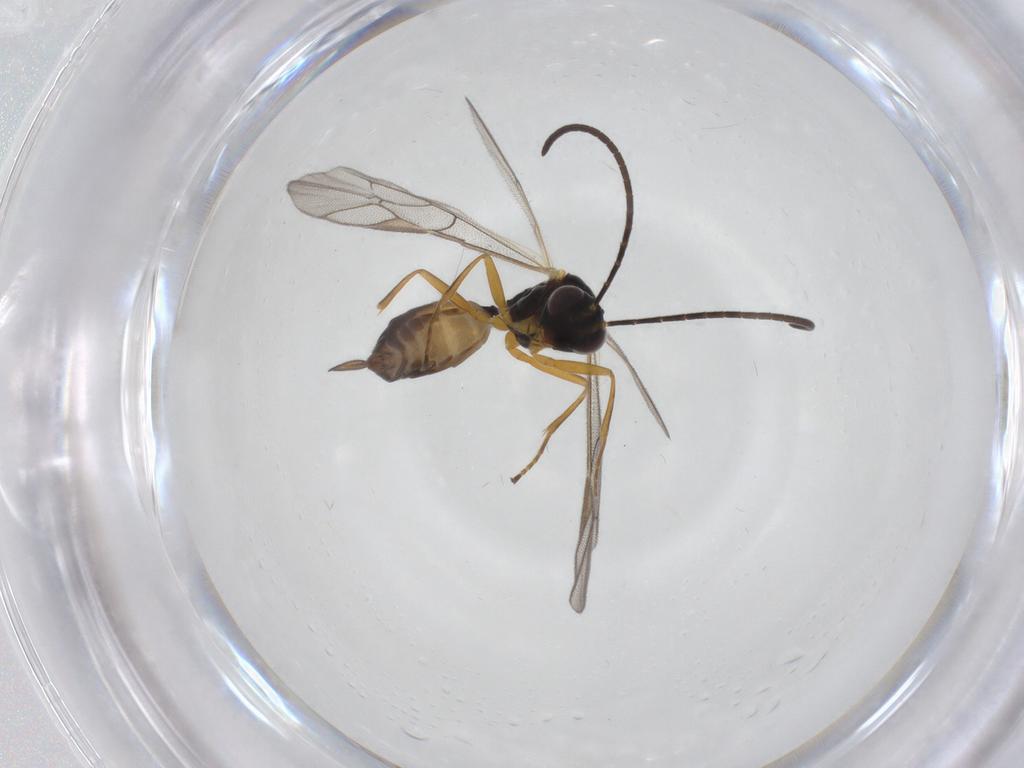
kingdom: Animalia
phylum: Arthropoda
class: Insecta
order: Hymenoptera
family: Ichneumonidae
